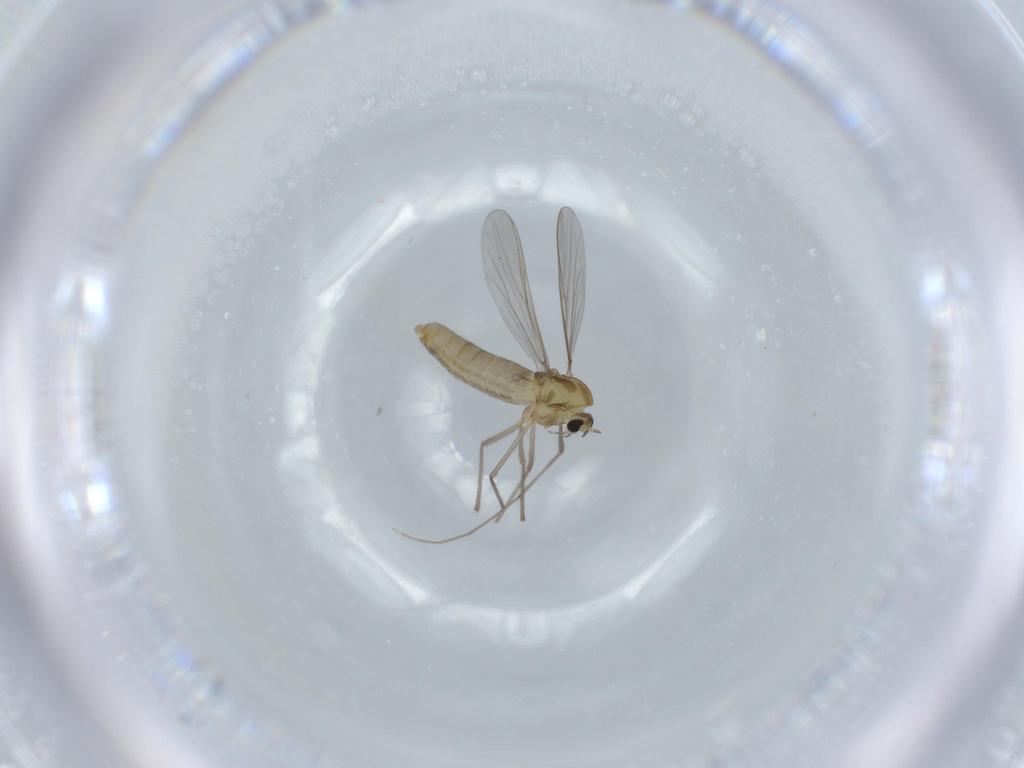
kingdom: Animalia
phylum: Arthropoda
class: Insecta
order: Diptera
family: Chironomidae
